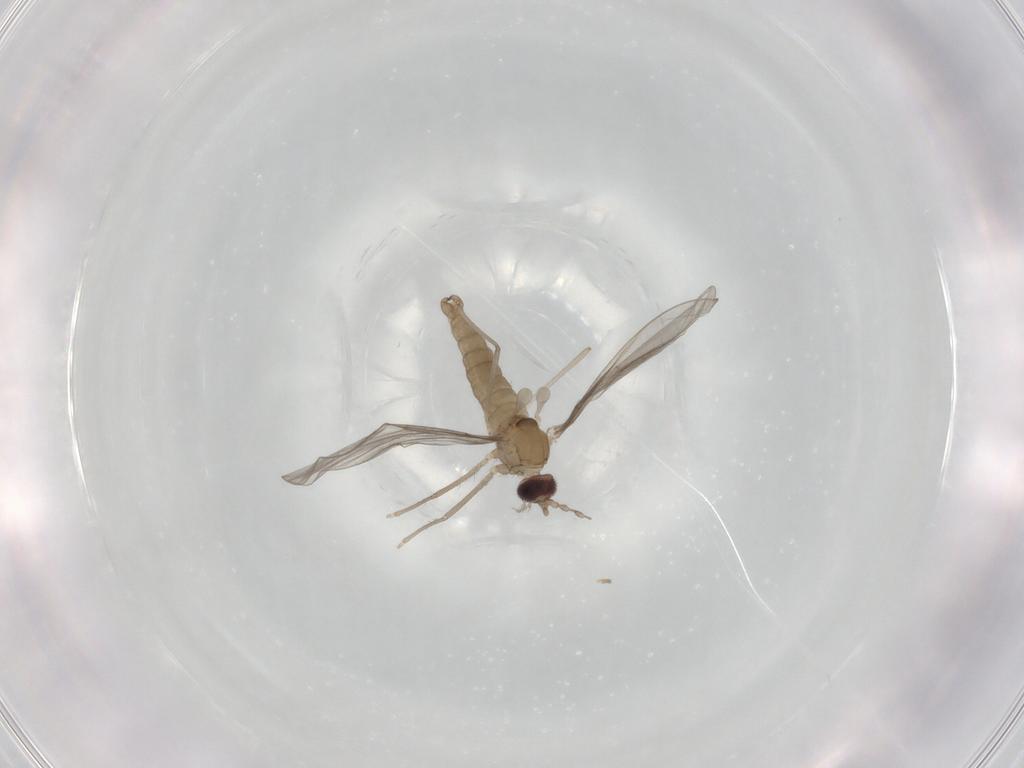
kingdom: Animalia
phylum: Arthropoda
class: Insecta
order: Diptera
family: Cecidomyiidae
